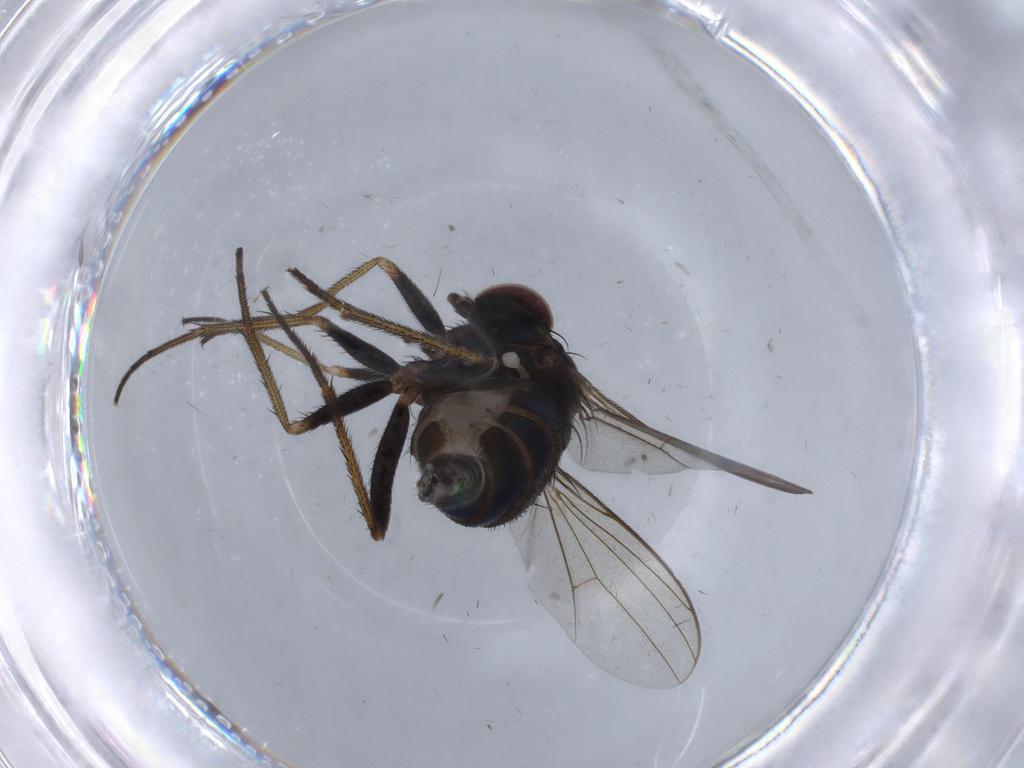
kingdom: Animalia
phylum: Arthropoda
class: Insecta
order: Diptera
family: Dolichopodidae
